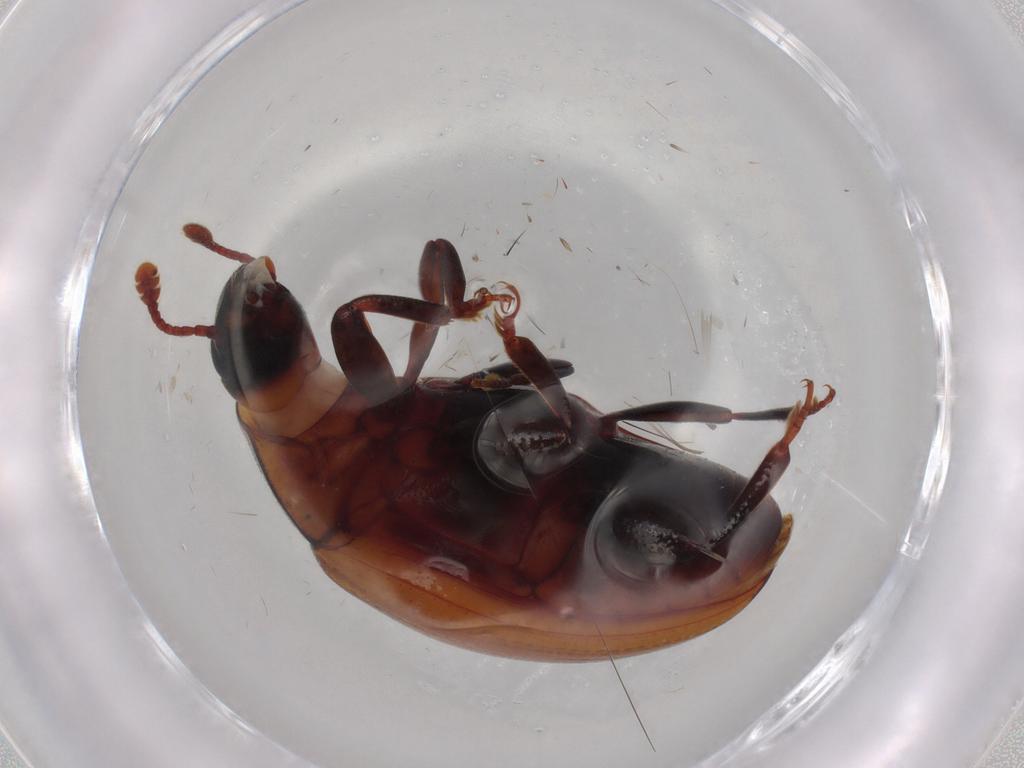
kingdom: Animalia
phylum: Arthropoda
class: Insecta
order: Coleoptera
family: Zopheridae
